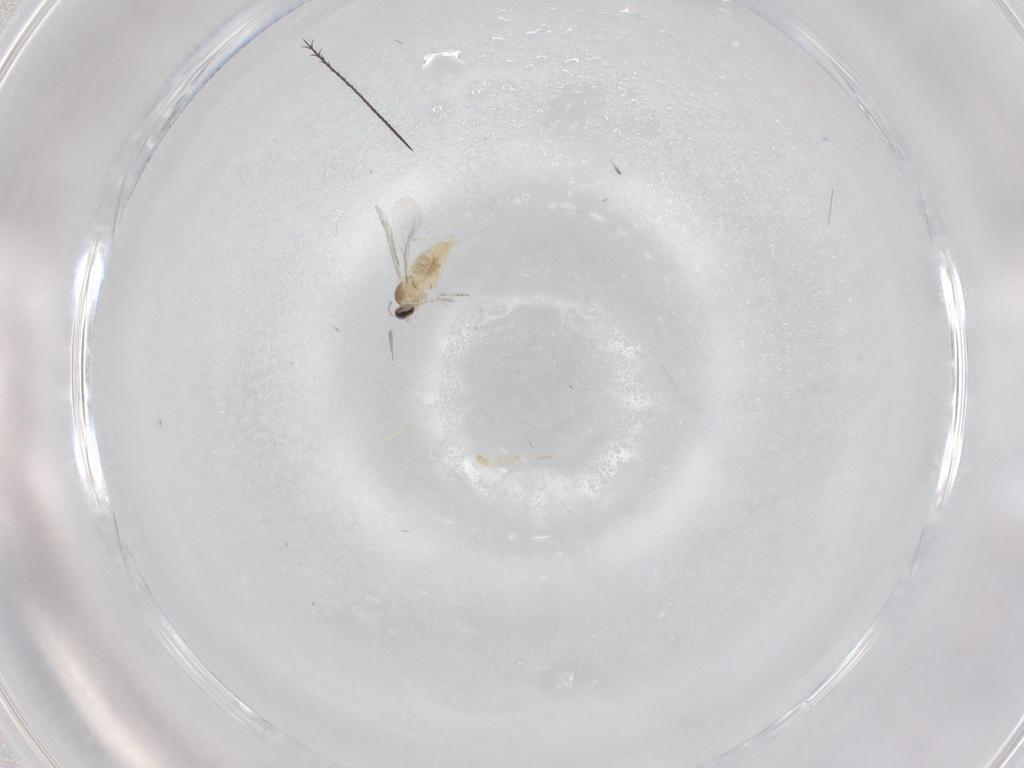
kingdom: Animalia
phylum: Arthropoda
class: Insecta
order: Diptera
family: Cecidomyiidae
